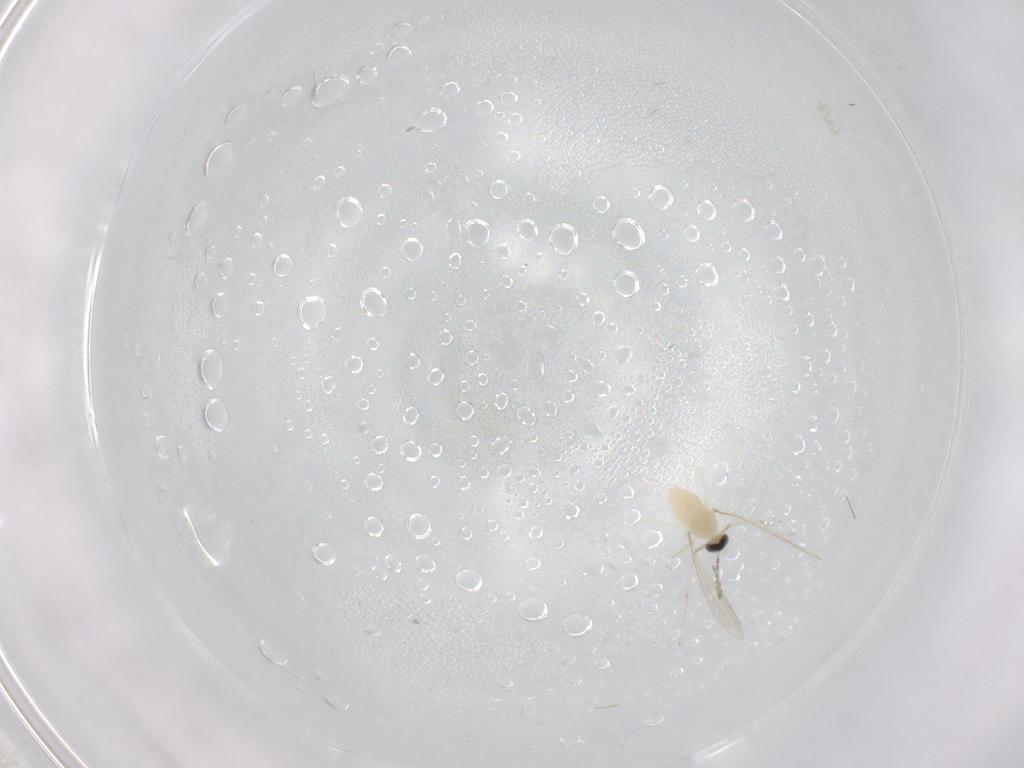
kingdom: Animalia
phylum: Arthropoda
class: Insecta
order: Diptera
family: Cecidomyiidae
